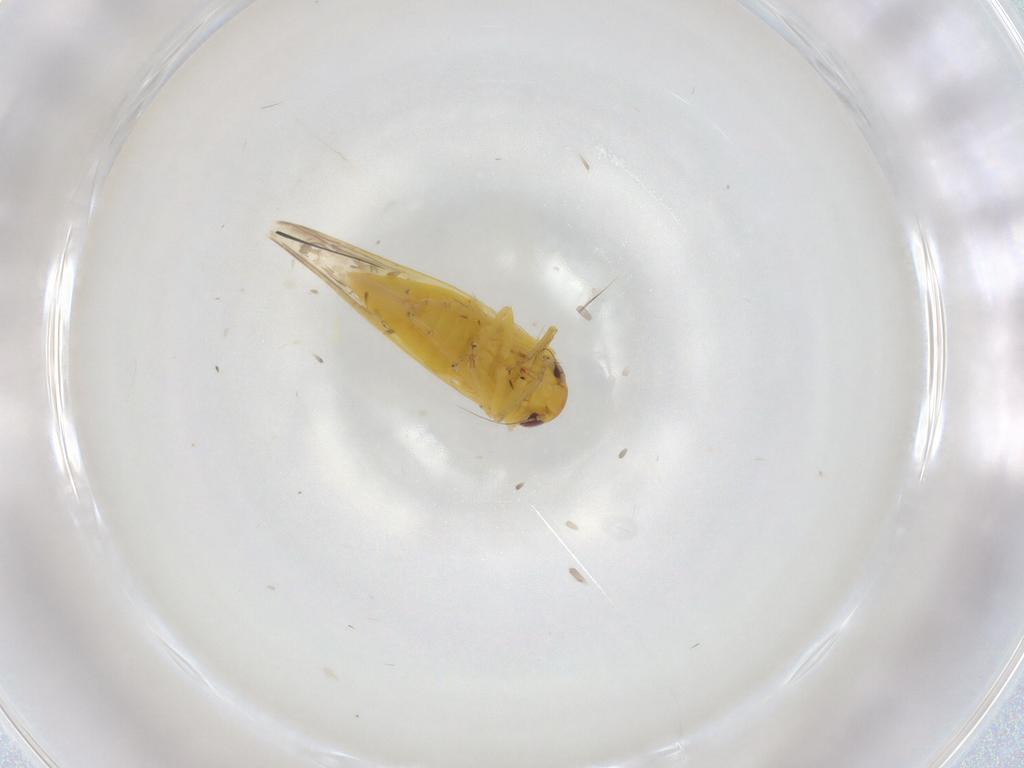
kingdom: Animalia
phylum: Arthropoda
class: Insecta
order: Hemiptera
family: Cicadellidae
